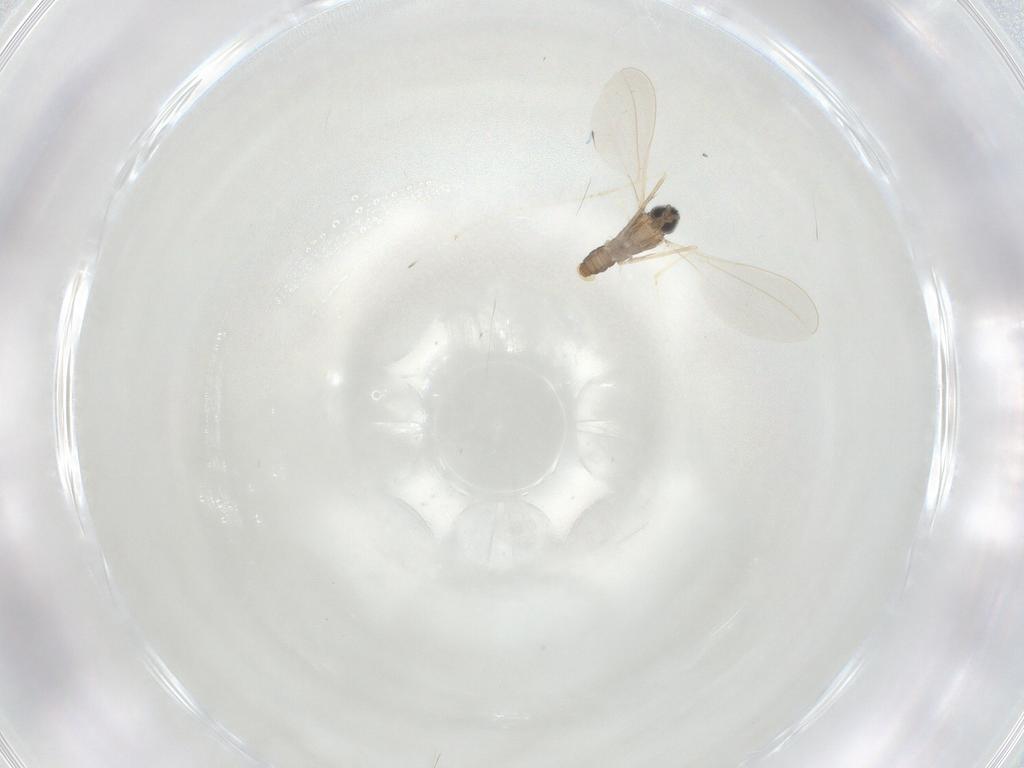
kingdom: Animalia
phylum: Arthropoda
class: Insecta
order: Diptera
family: Cecidomyiidae
